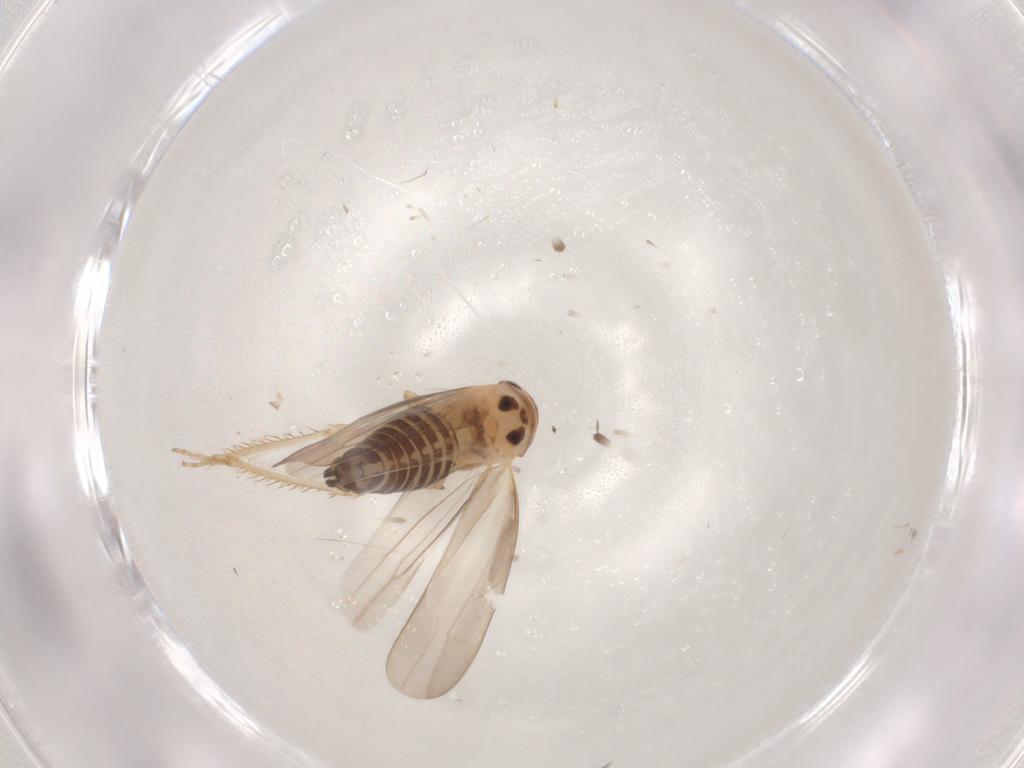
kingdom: Animalia
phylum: Arthropoda
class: Insecta
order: Hemiptera
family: Cicadellidae
